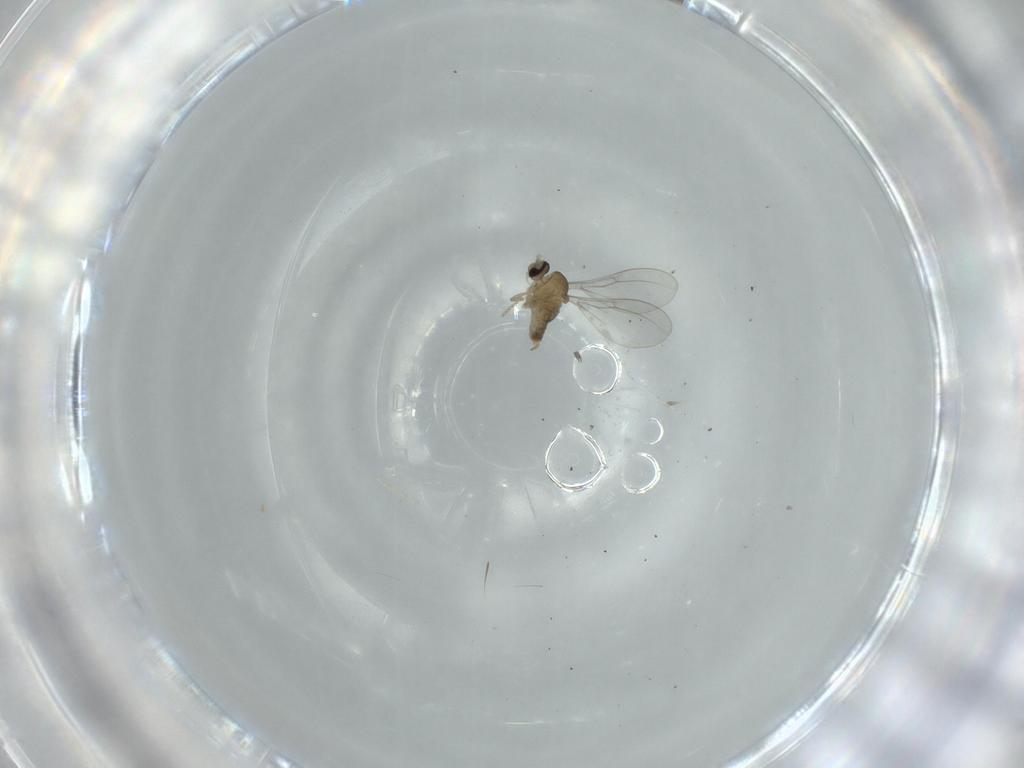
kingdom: Animalia
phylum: Arthropoda
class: Insecta
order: Diptera
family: Cecidomyiidae
